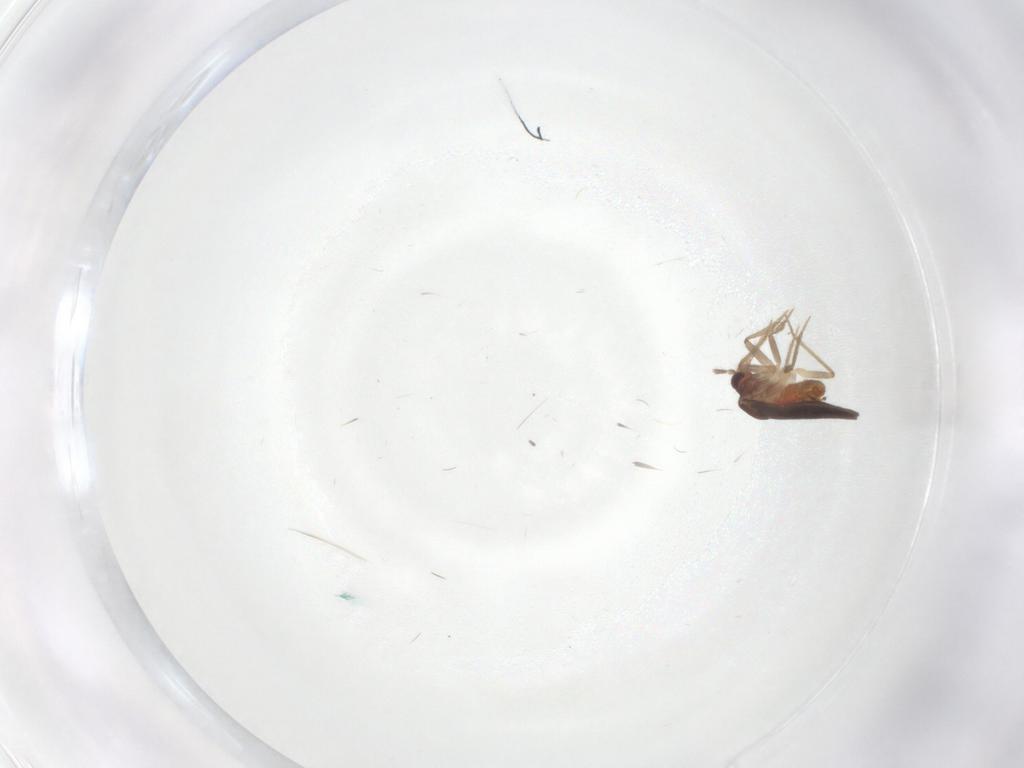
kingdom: Animalia
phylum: Arthropoda
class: Insecta
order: Hemiptera
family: Ceratocombidae
